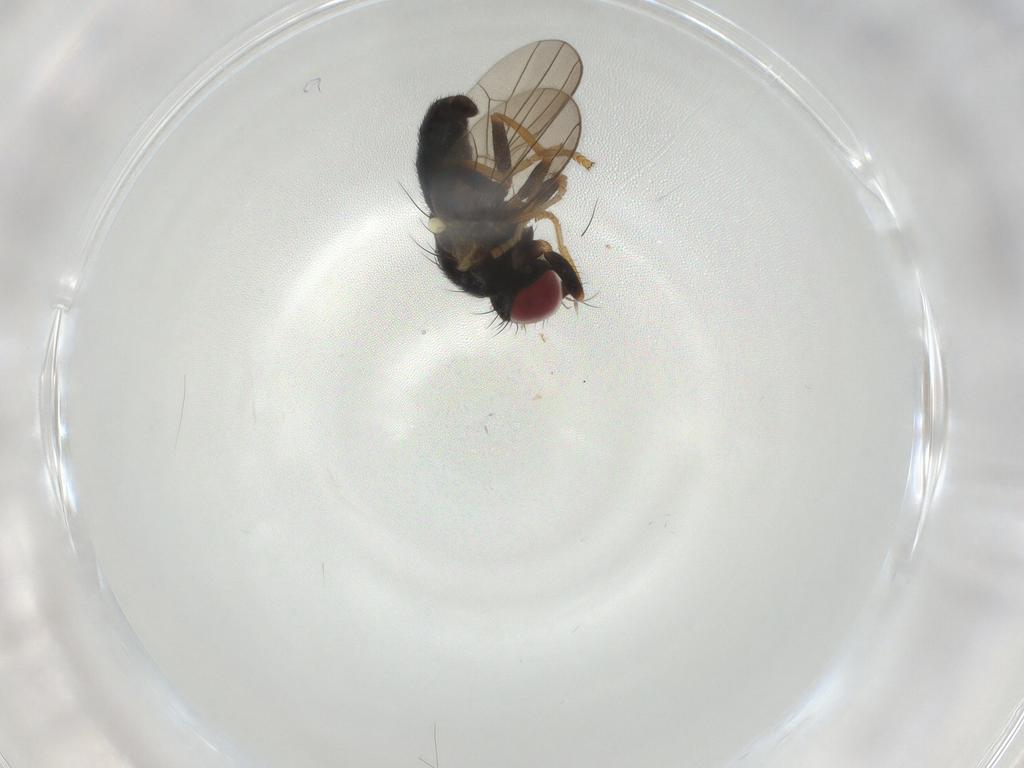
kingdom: Animalia
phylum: Arthropoda
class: Insecta
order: Diptera
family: Chamaemyiidae
